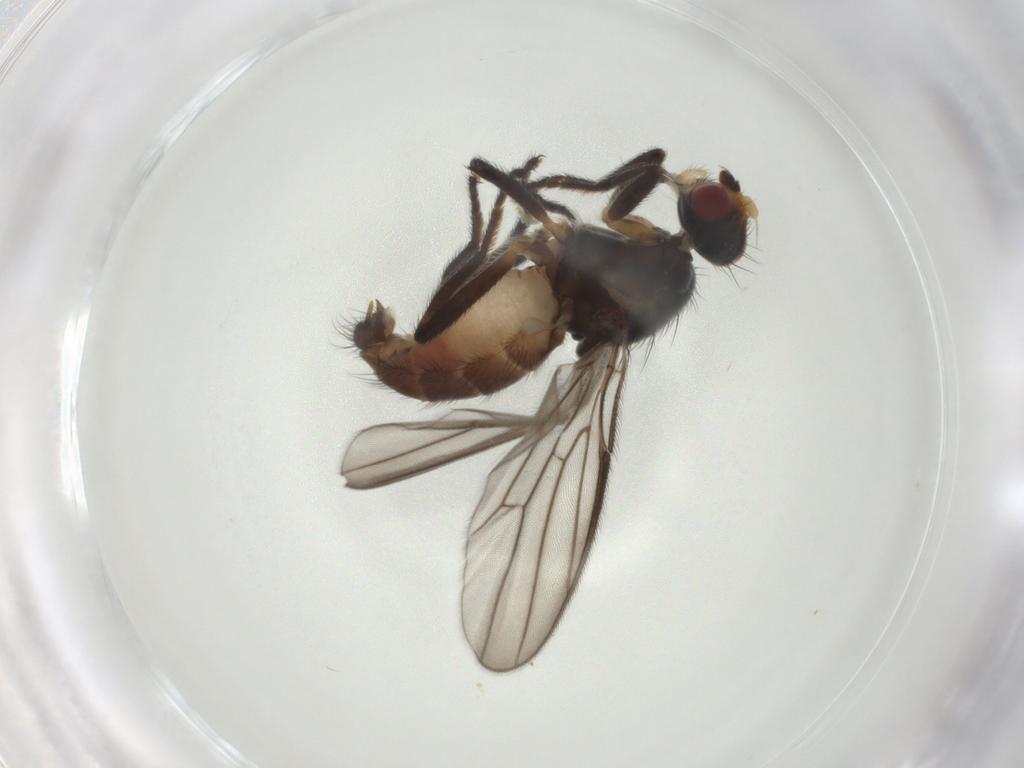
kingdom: Animalia
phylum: Arthropoda
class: Insecta
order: Diptera
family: Chloropidae
